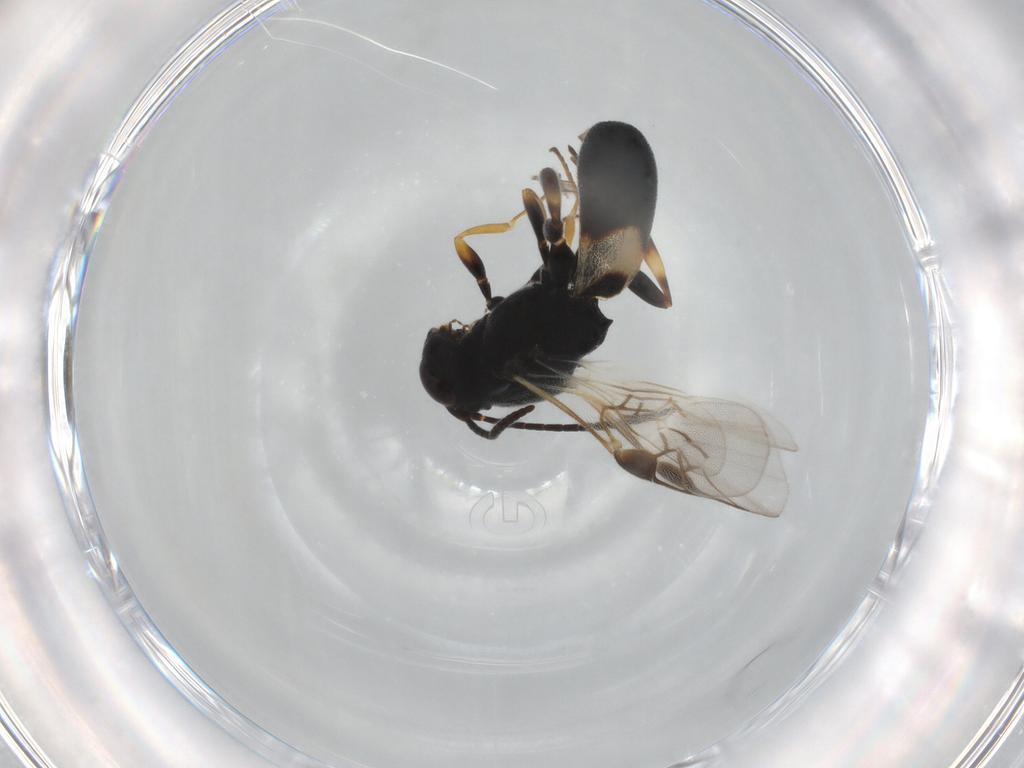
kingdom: Animalia
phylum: Arthropoda
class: Insecta
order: Hymenoptera
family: Braconidae
